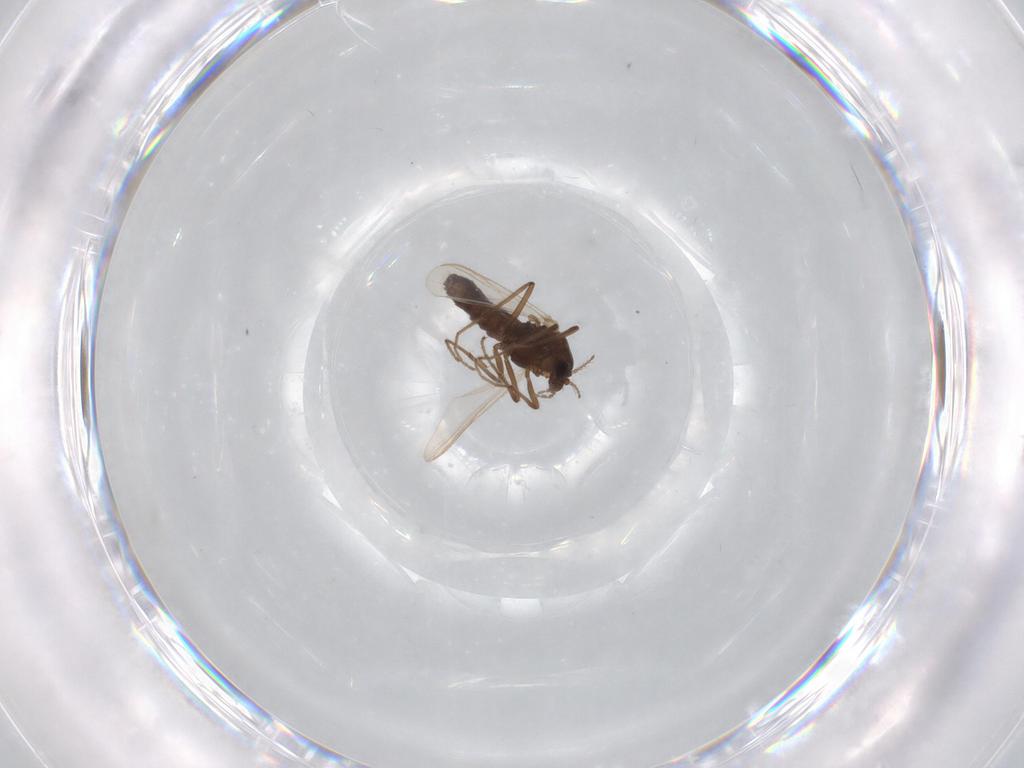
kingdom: Animalia
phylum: Arthropoda
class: Insecta
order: Diptera
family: Chironomidae
